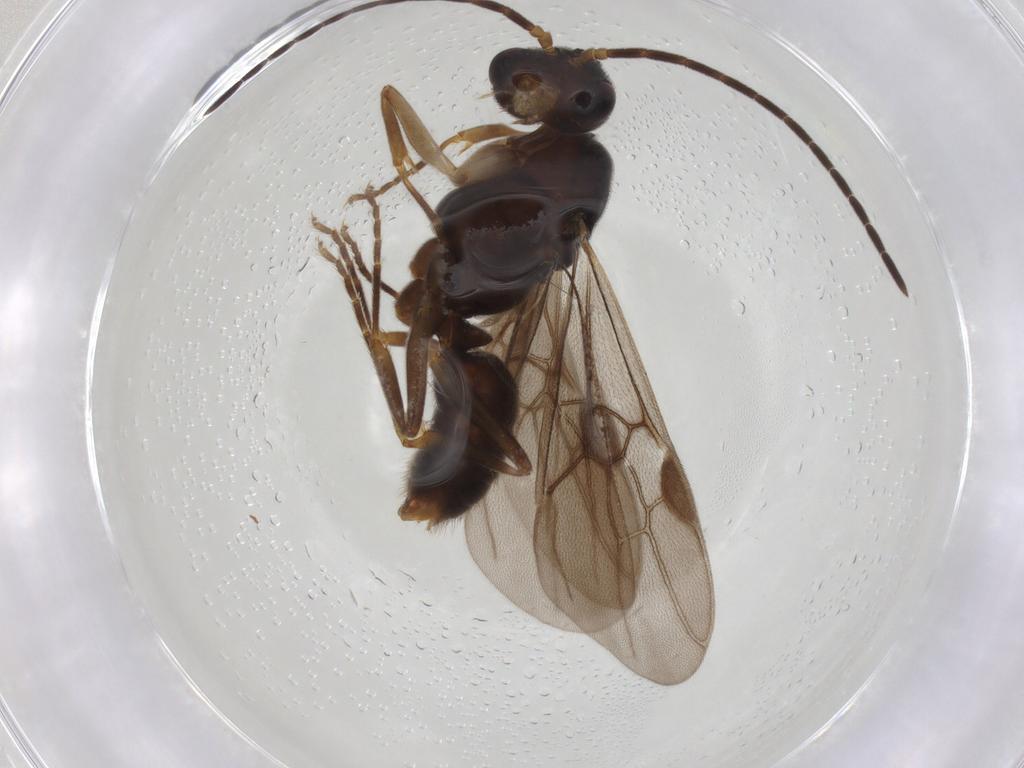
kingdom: Animalia
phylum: Arthropoda
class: Insecta
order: Hymenoptera
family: Formicidae
